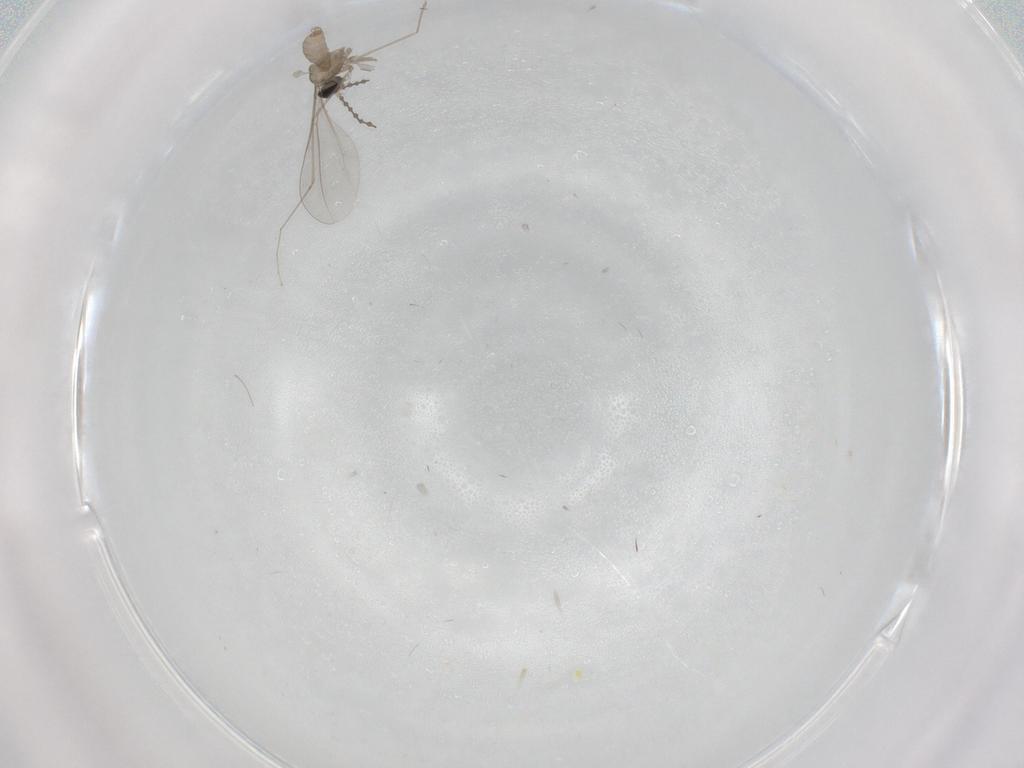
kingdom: Animalia
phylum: Arthropoda
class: Insecta
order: Diptera
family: Cecidomyiidae
